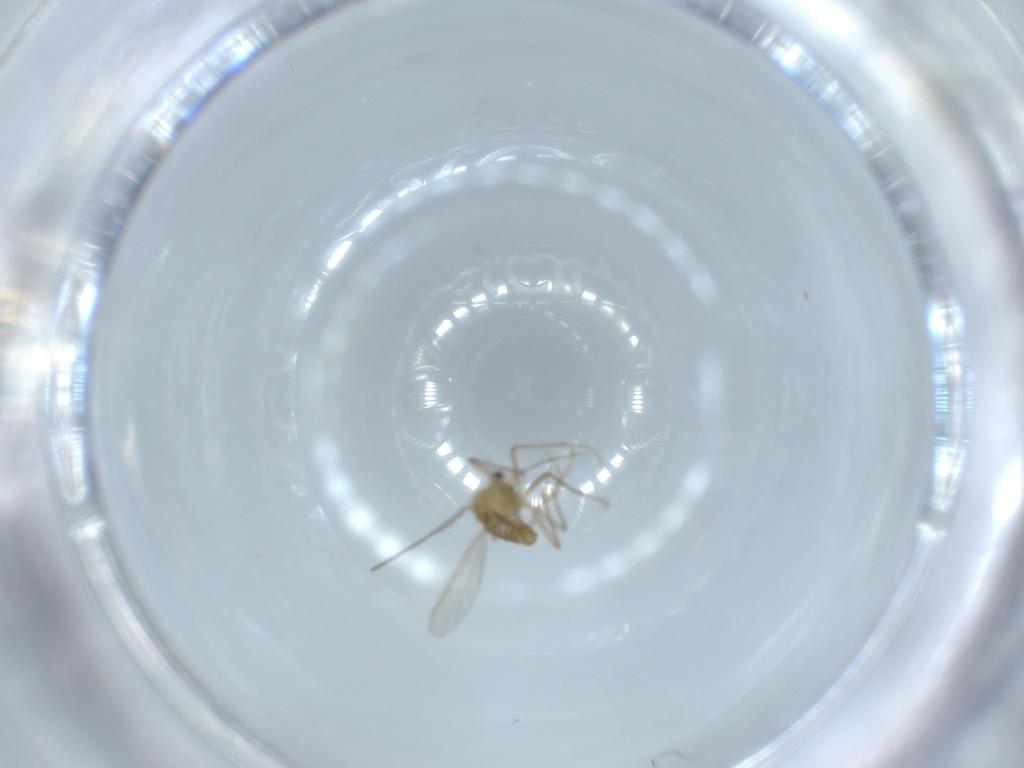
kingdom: Animalia
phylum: Arthropoda
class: Insecta
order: Diptera
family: Chironomidae
